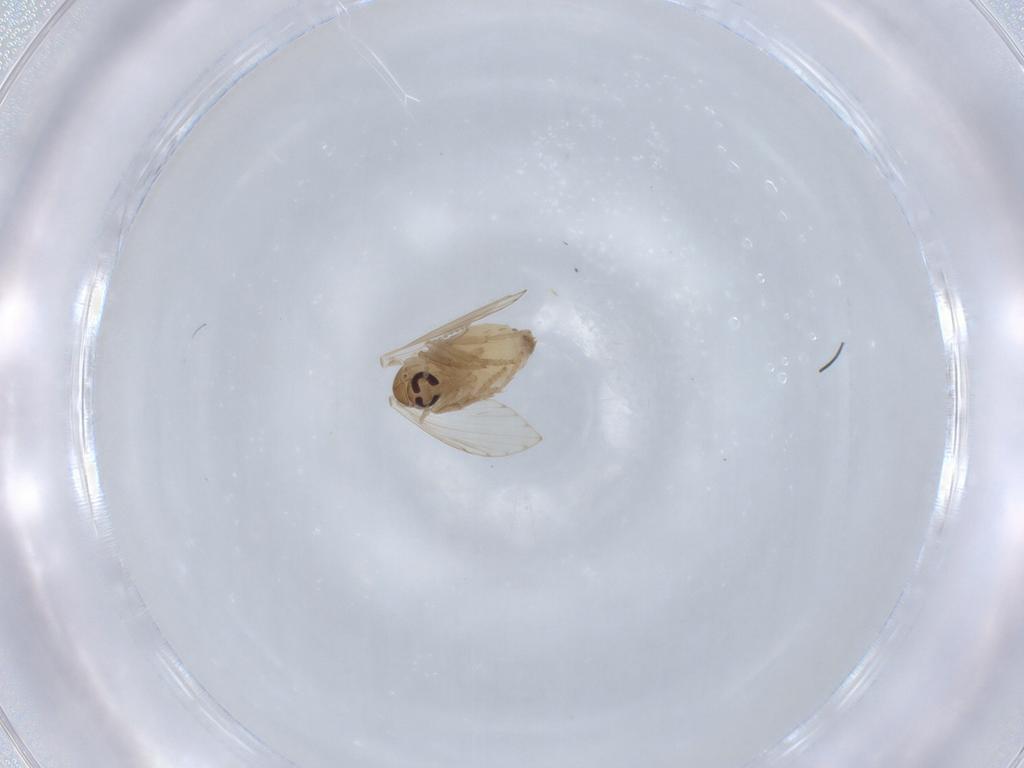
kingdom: Animalia
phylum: Arthropoda
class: Insecta
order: Diptera
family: Psychodidae
